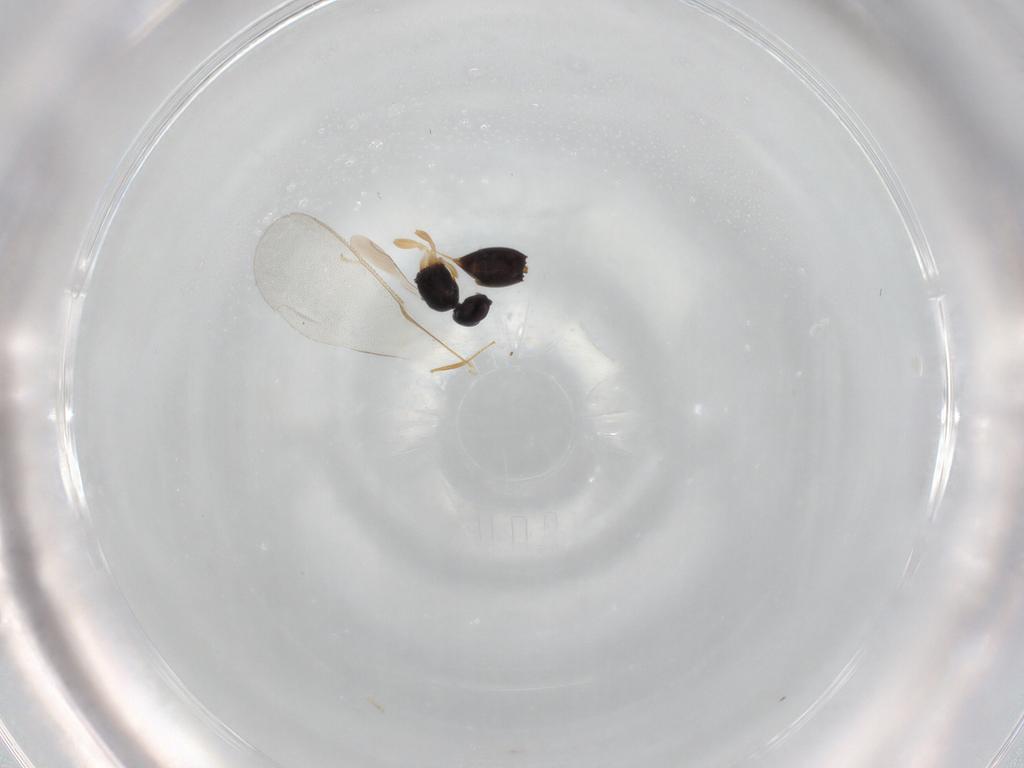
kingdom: Animalia
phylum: Arthropoda
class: Insecta
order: Hymenoptera
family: Ceraphronidae
